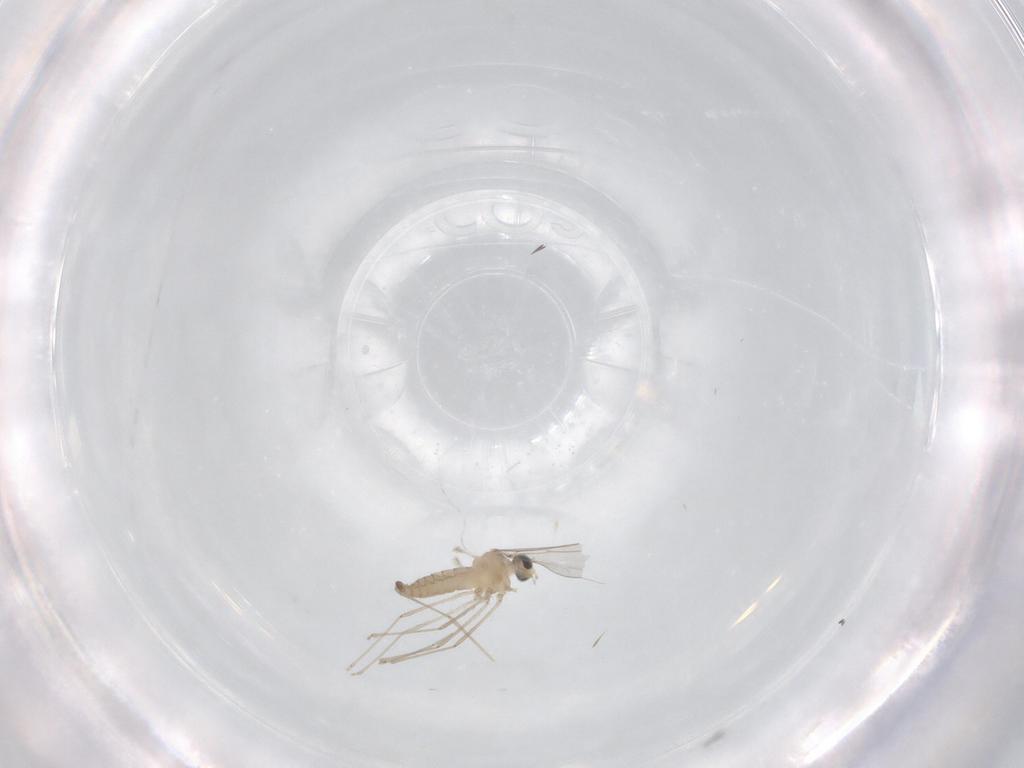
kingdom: Animalia
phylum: Arthropoda
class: Insecta
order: Diptera
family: Cecidomyiidae
